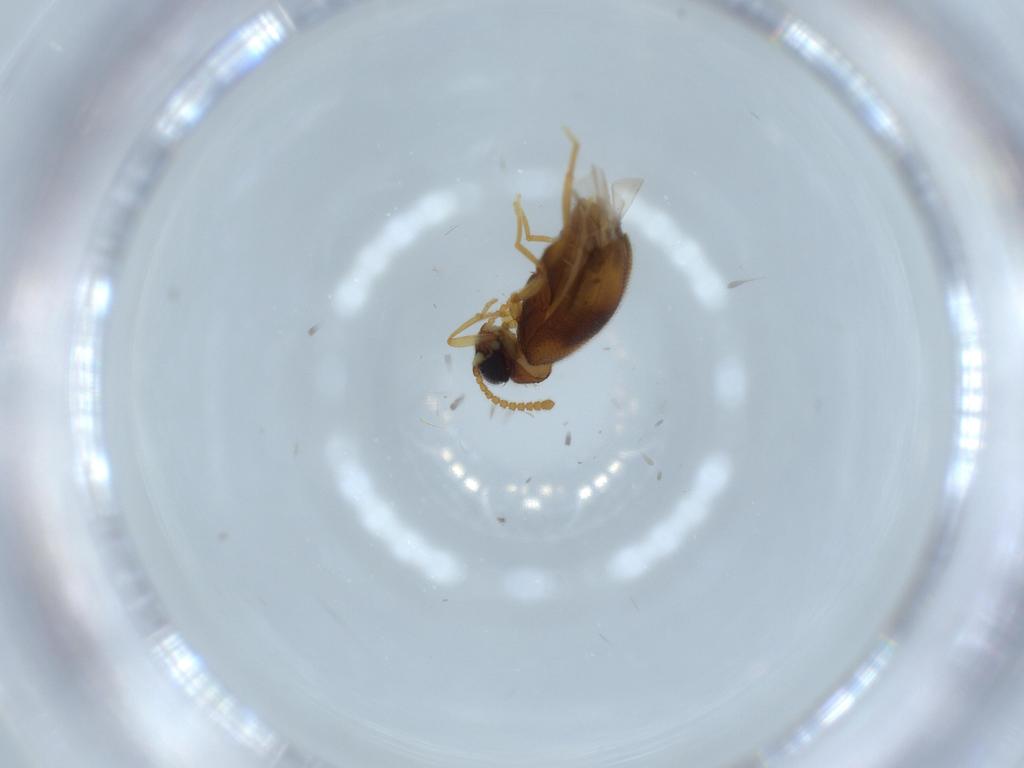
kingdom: Animalia
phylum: Arthropoda
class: Insecta
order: Coleoptera
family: Aderidae
